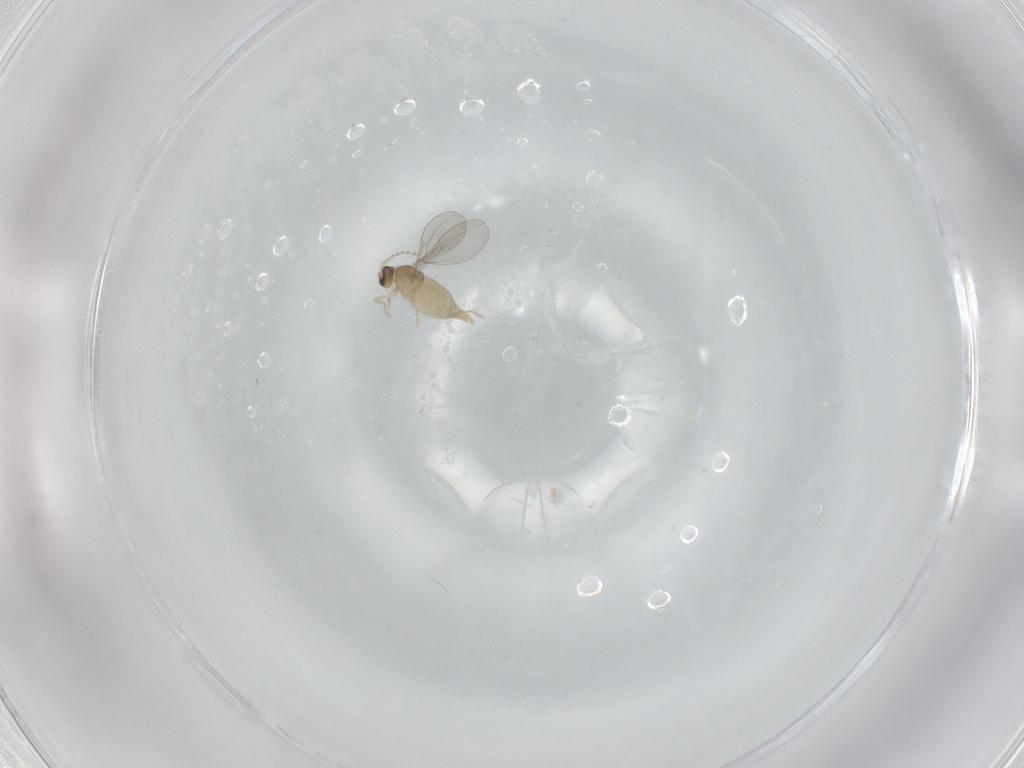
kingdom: Animalia
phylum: Arthropoda
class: Insecta
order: Diptera
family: Cecidomyiidae
